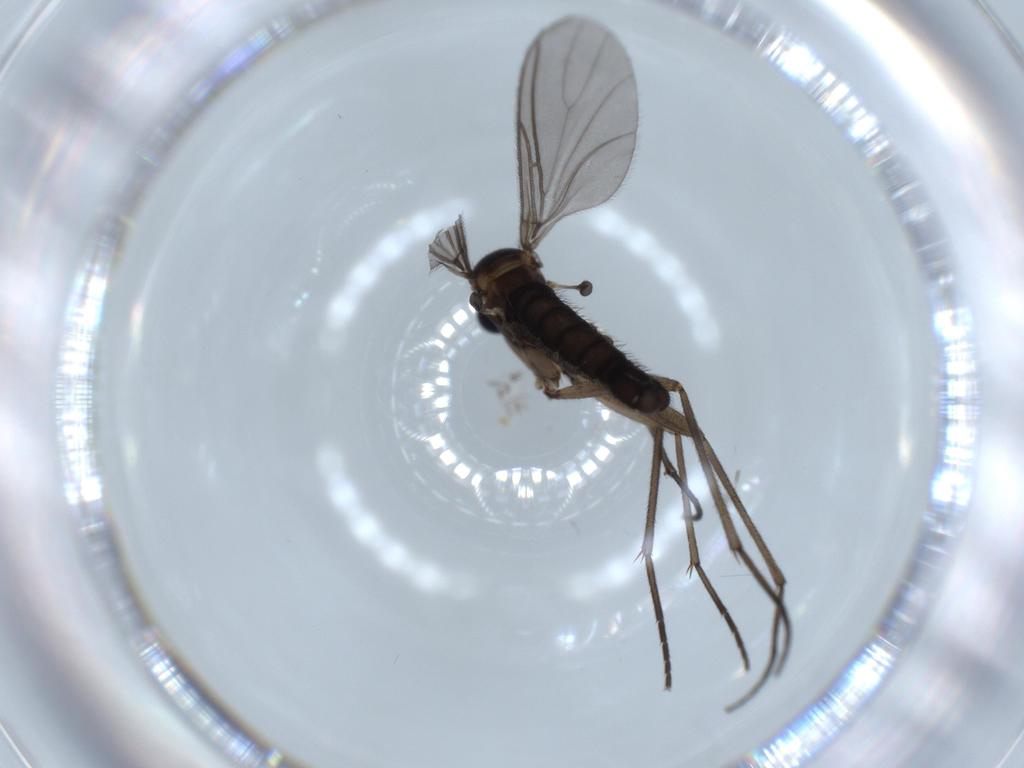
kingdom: Animalia
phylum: Arthropoda
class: Insecta
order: Diptera
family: Sciaridae
